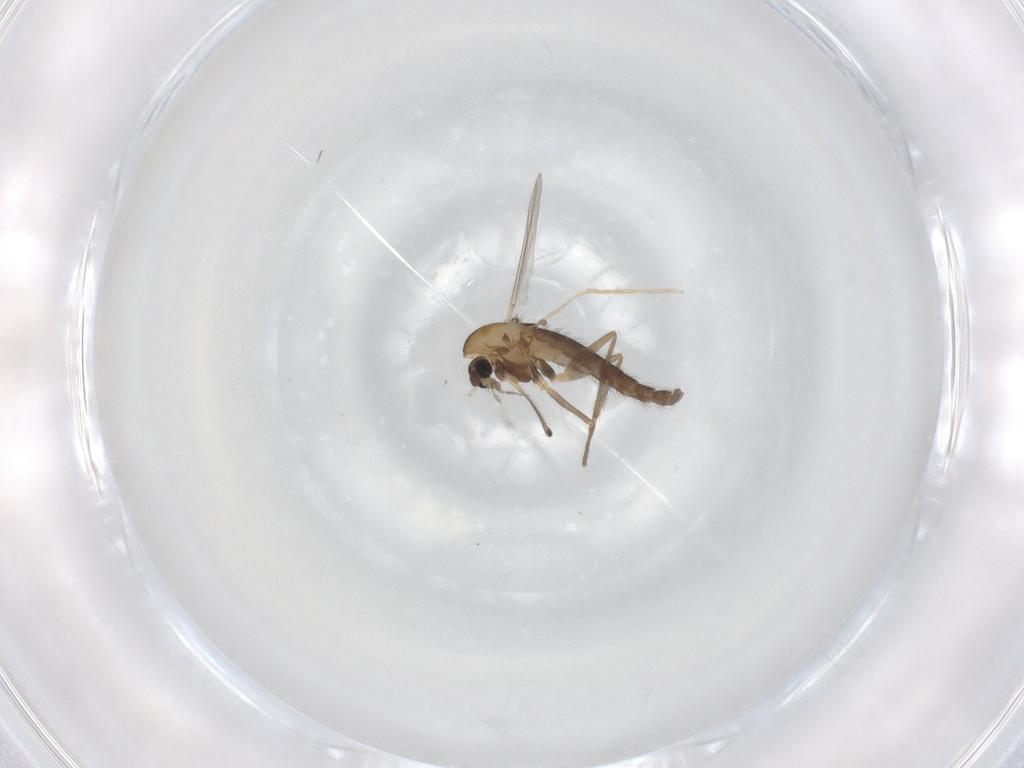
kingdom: Animalia
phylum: Arthropoda
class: Insecta
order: Diptera
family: Chironomidae
